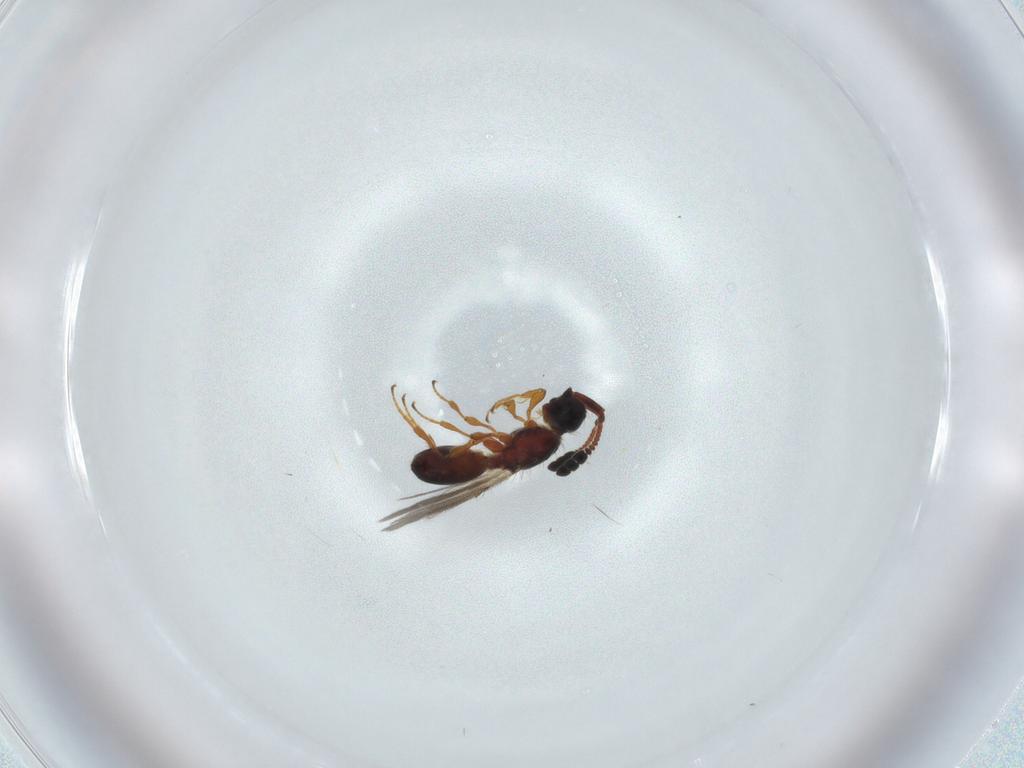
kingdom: Animalia
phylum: Arthropoda
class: Insecta
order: Hymenoptera
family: Diapriidae
